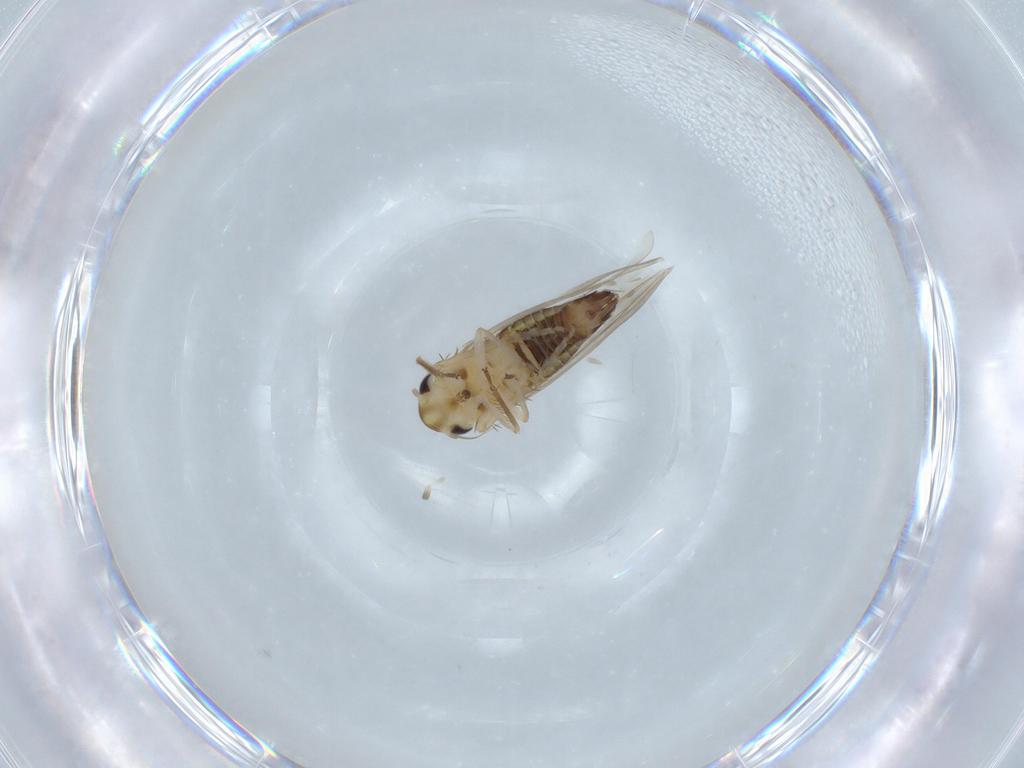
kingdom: Animalia
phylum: Arthropoda
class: Insecta
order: Hemiptera
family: Cicadellidae
